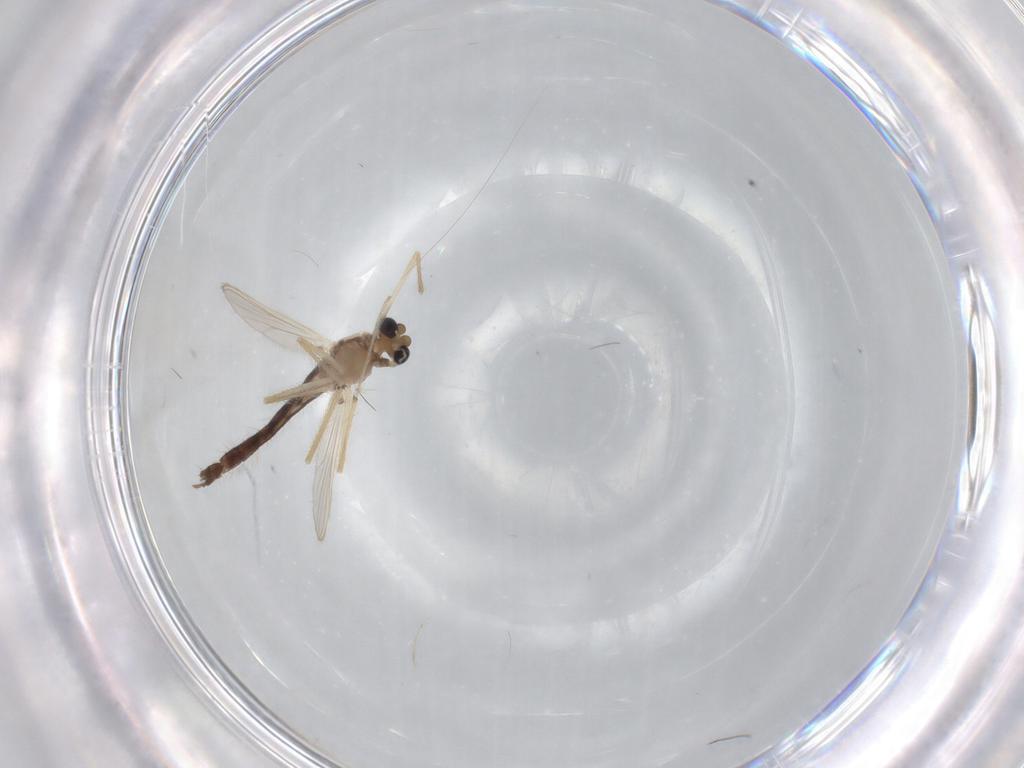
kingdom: Animalia
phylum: Arthropoda
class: Insecta
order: Diptera
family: Chironomidae
